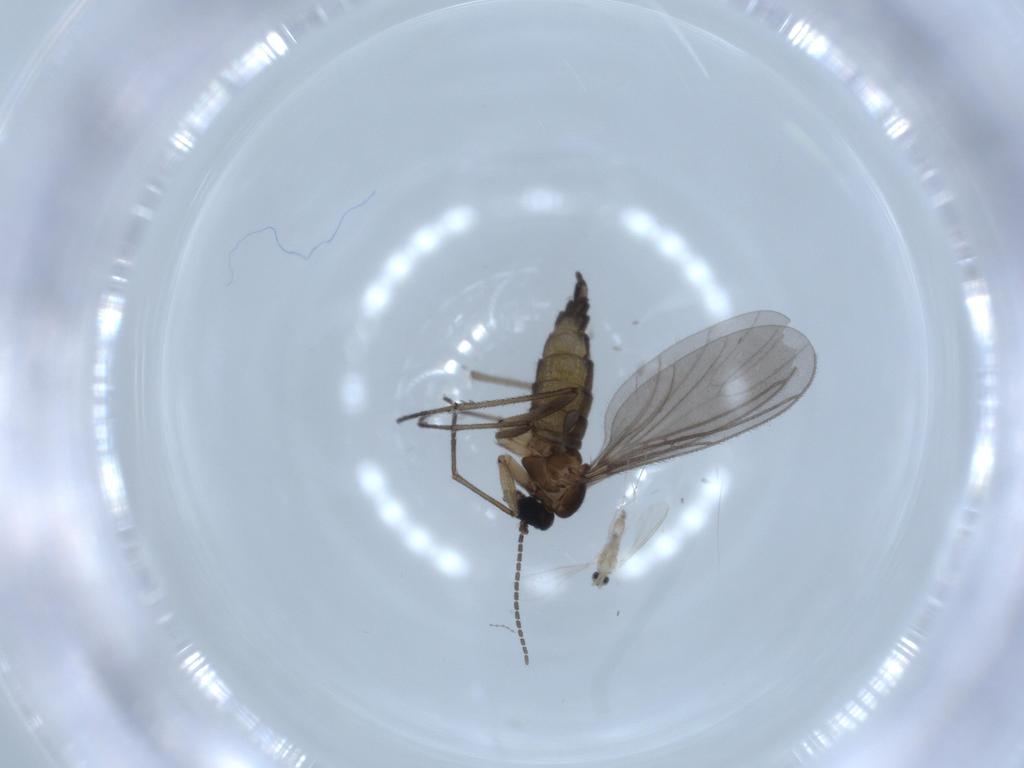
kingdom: Animalia
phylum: Arthropoda
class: Insecta
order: Diptera
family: Sciaridae
